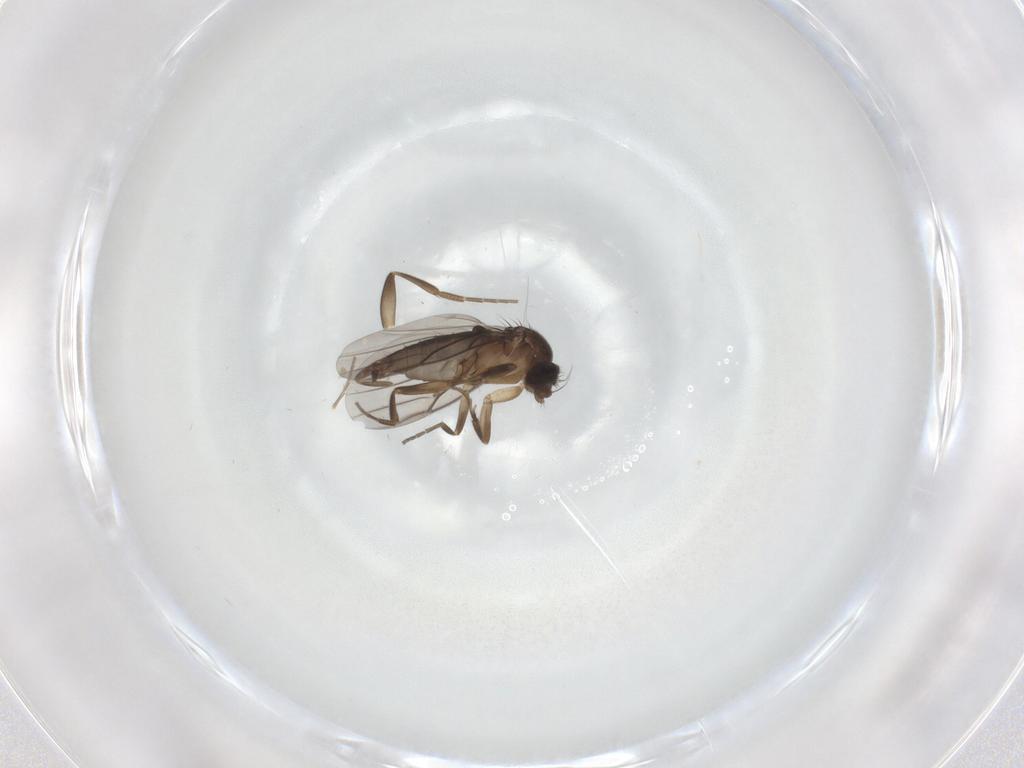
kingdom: Animalia
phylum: Arthropoda
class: Insecta
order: Diptera
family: Phoridae
